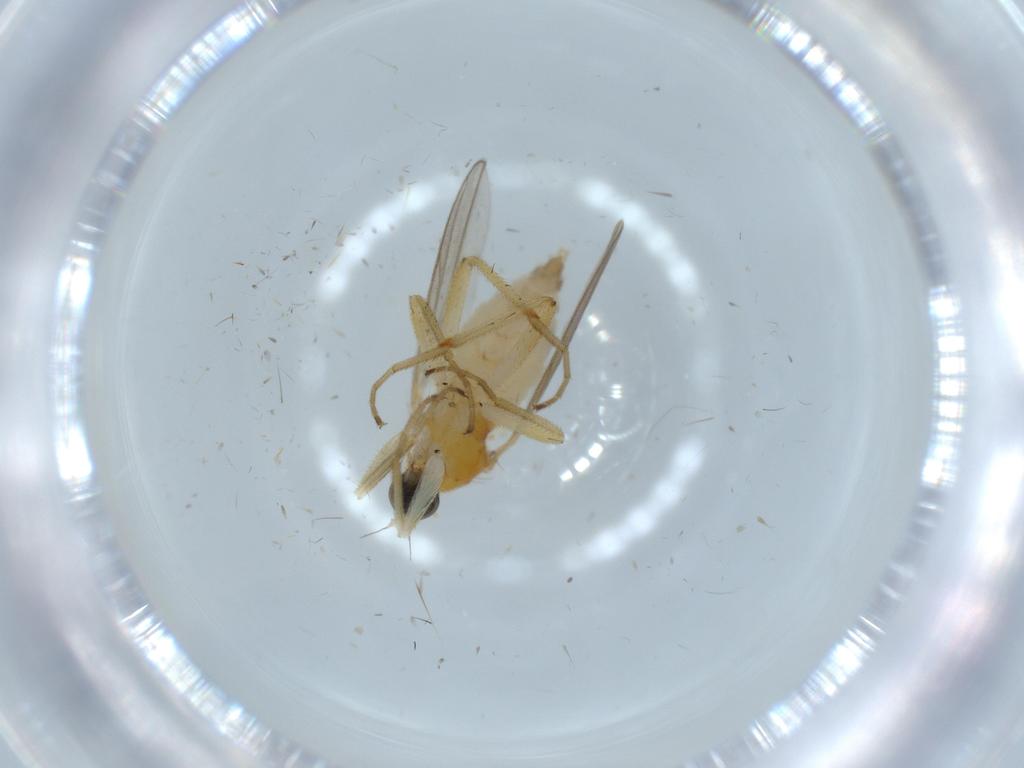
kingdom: Animalia
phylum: Arthropoda
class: Insecta
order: Diptera
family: Hybotidae
